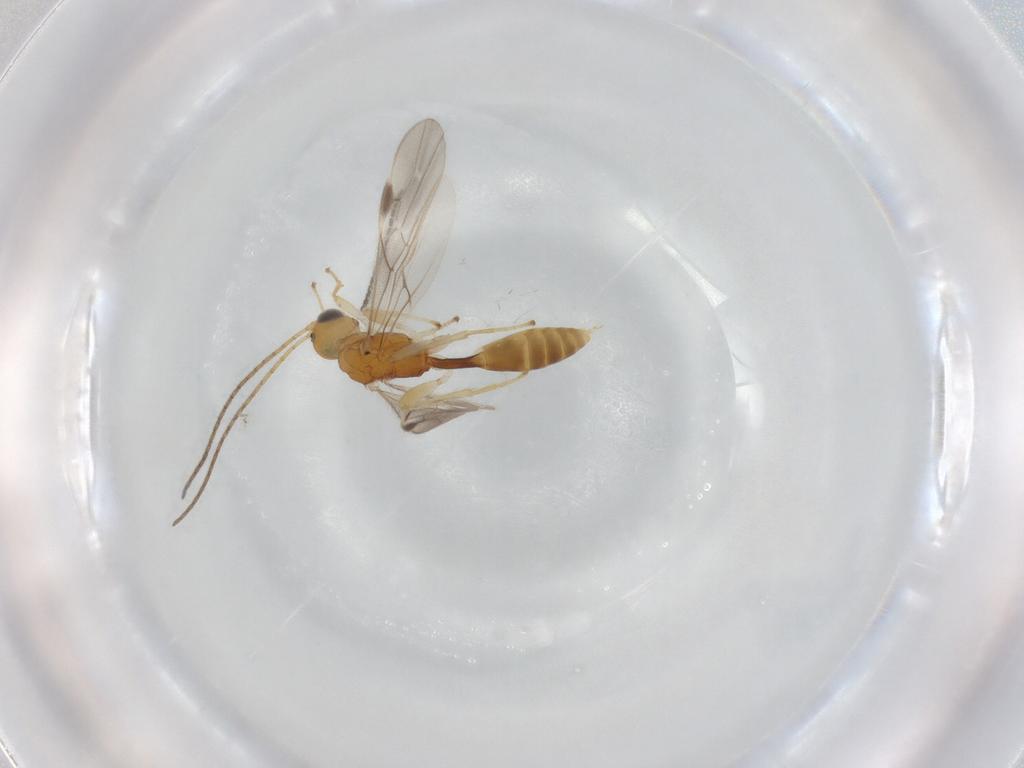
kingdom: Animalia
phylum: Arthropoda
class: Insecta
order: Hymenoptera
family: Braconidae
